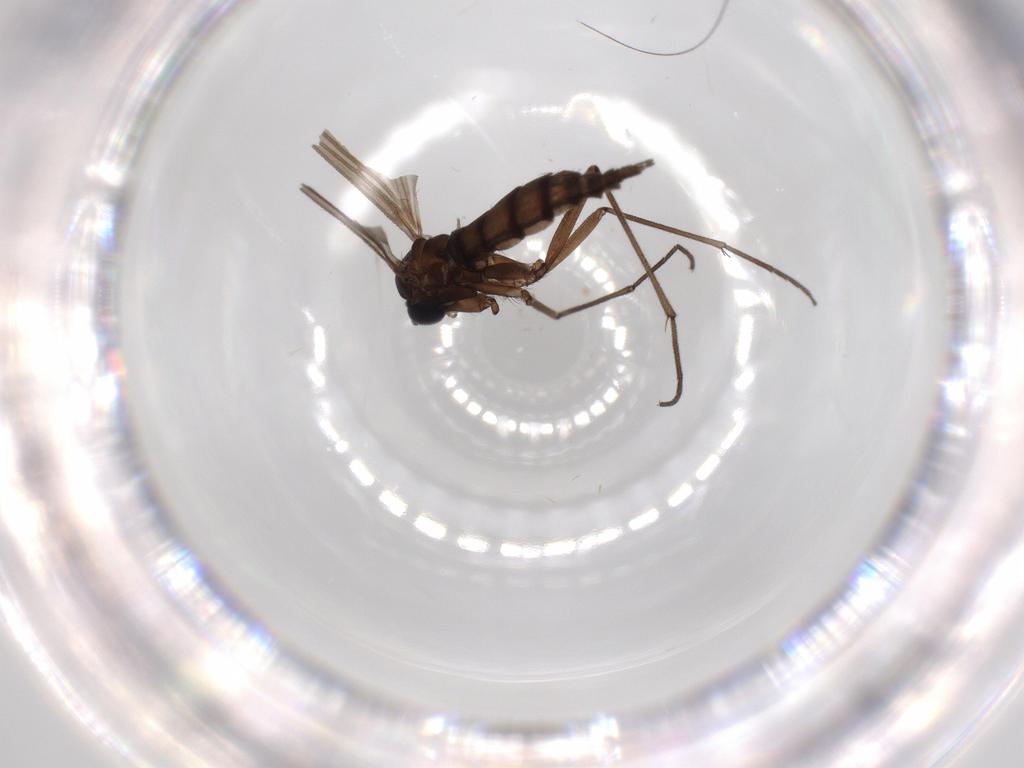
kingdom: Animalia
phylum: Arthropoda
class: Insecta
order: Diptera
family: Sciaridae
